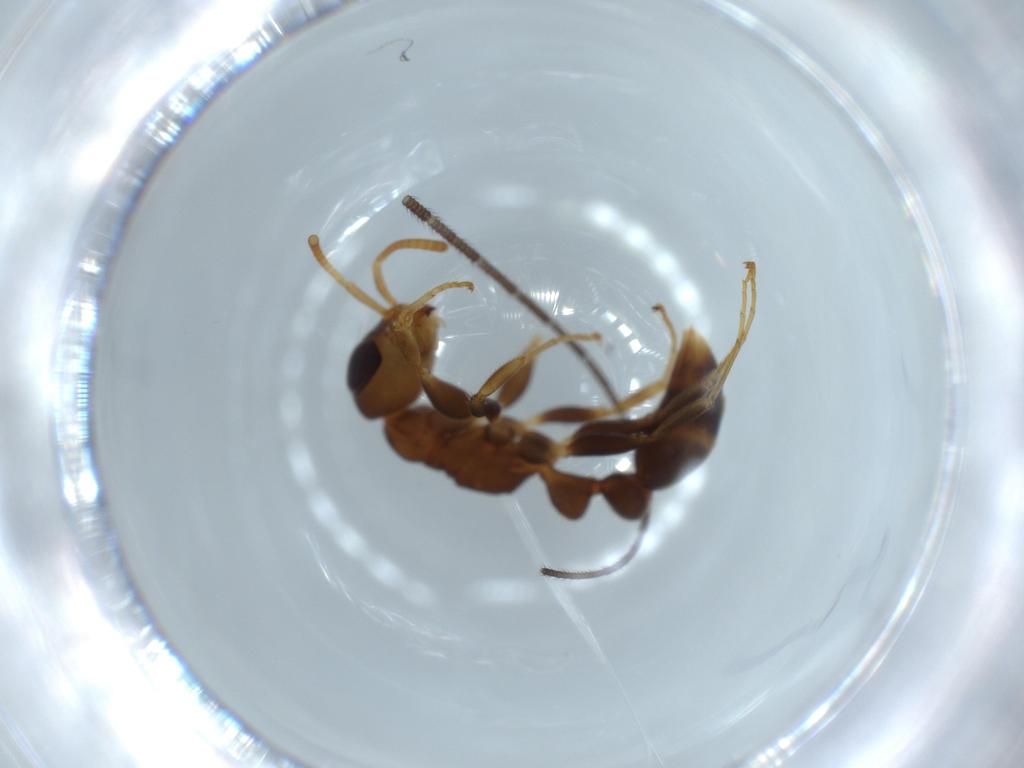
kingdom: Animalia
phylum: Arthropoda
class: Insecta
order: Hymenoptera
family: Formicidae
